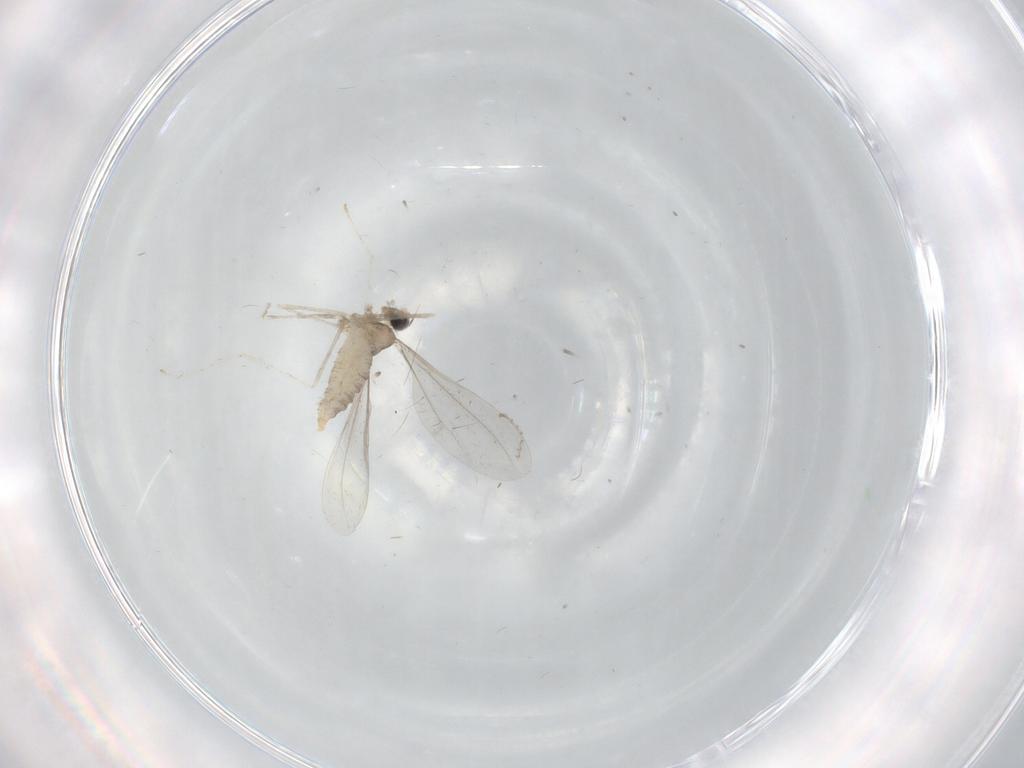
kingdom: Animalia
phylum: Arthropoda
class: Insecta
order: Diptera
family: Cecidomyiidae
